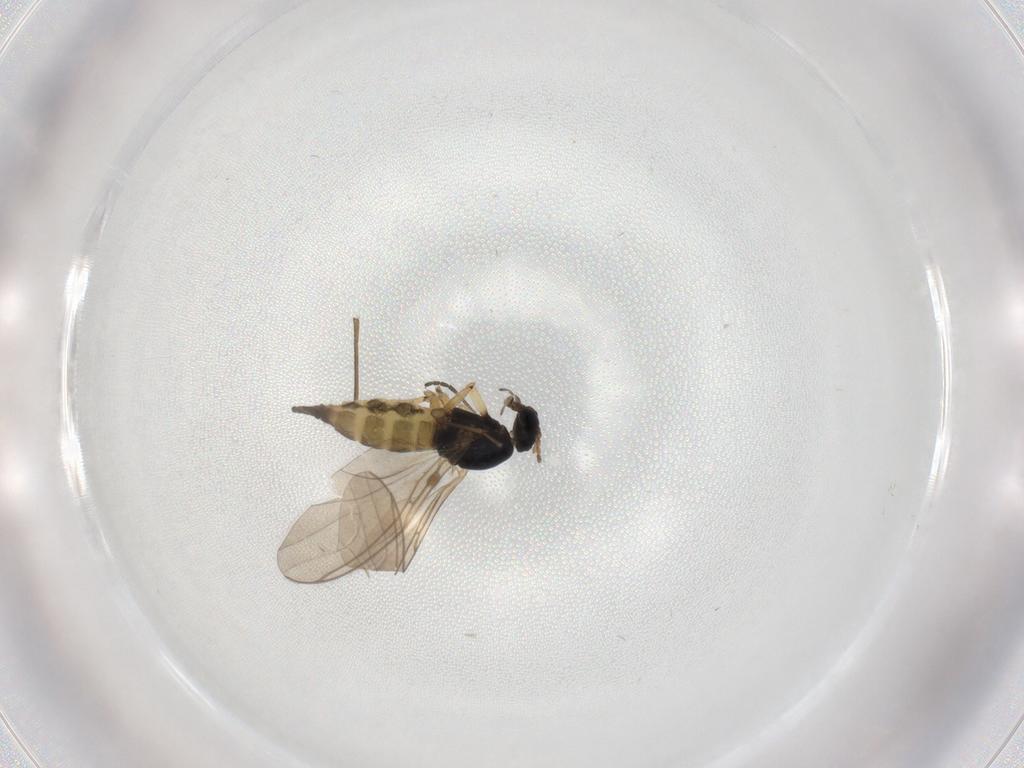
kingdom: Animalia
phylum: Arthropoda
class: Insecta
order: Diptera
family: Sciaridae
